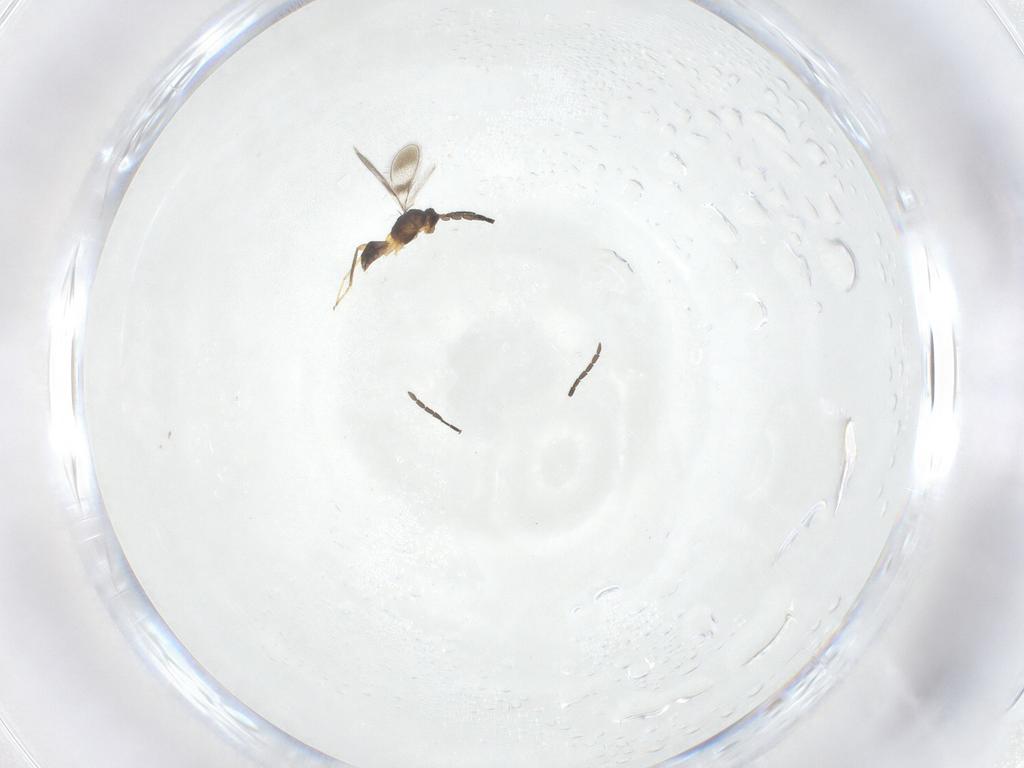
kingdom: Animalia
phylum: Arthropoda
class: Insecta
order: Hymenoptera
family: Mymaridae
